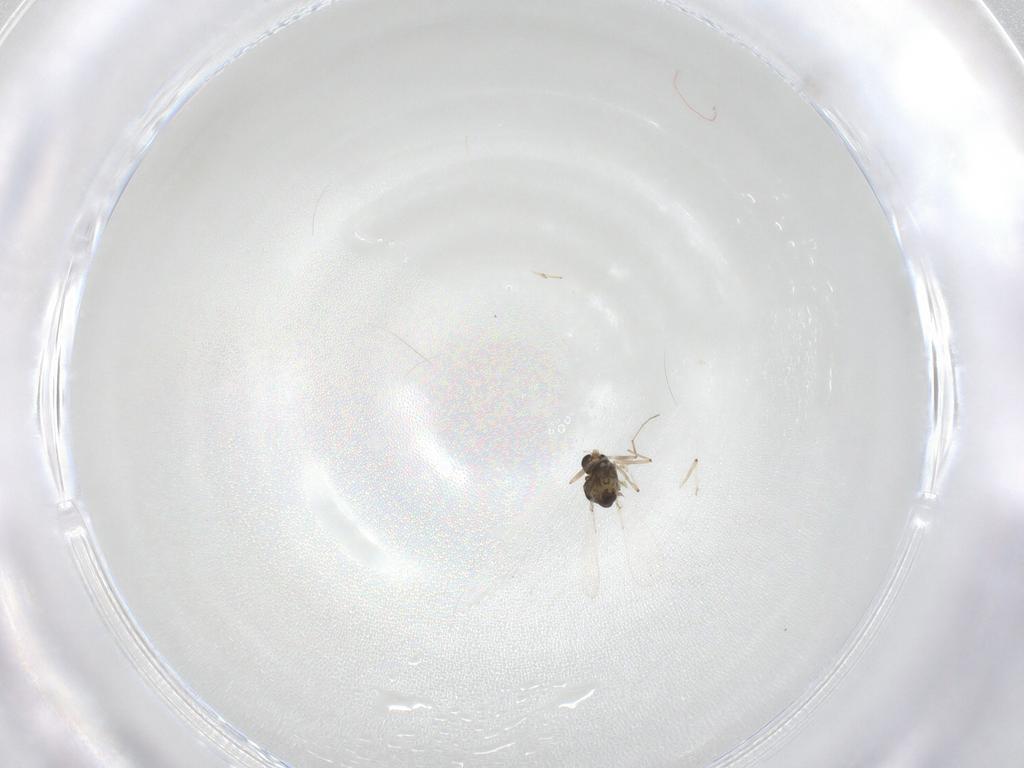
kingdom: Animalia
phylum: Arthropoda
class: Insecta
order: Diptera
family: Chironomidae
